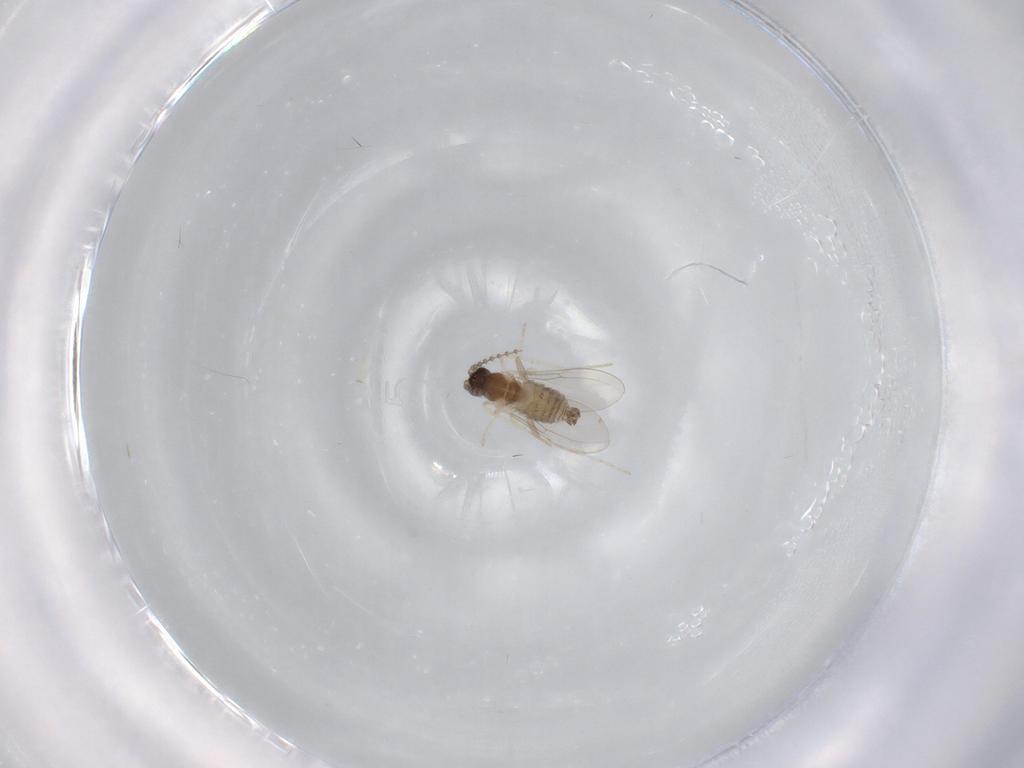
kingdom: Animalia
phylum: Arthropoda
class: Insecta
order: Diptera
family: Cecidomyiidae
